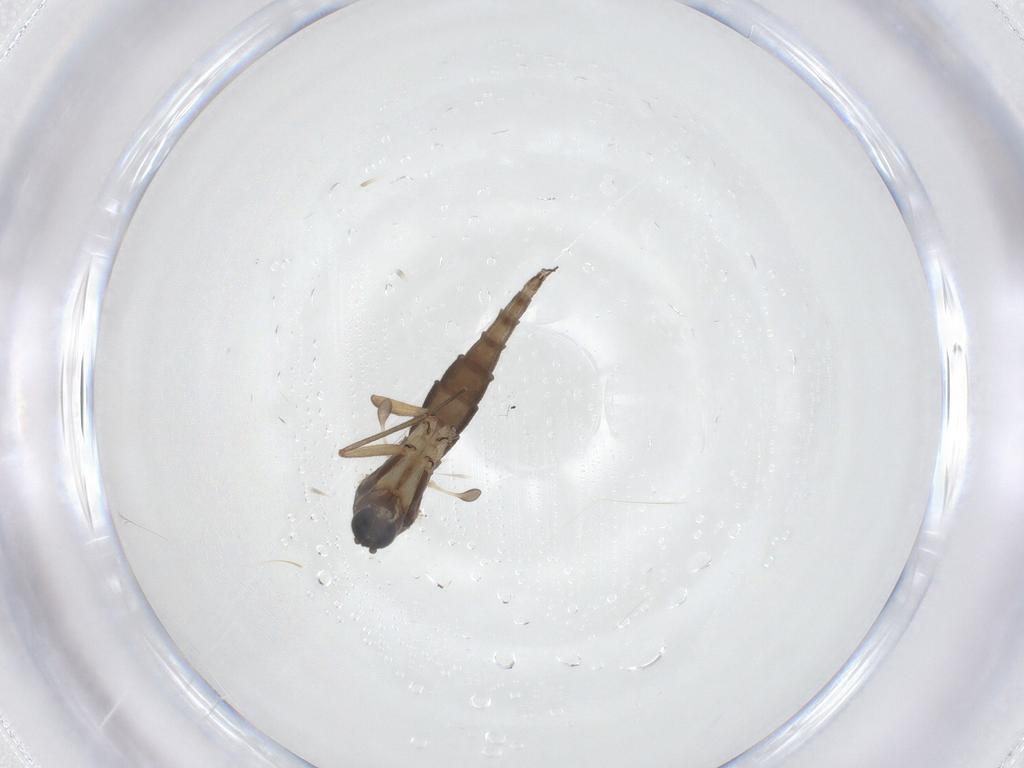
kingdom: Animalia
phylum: Arthropoda
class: Insecta
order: Diptera
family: Sciaridae
